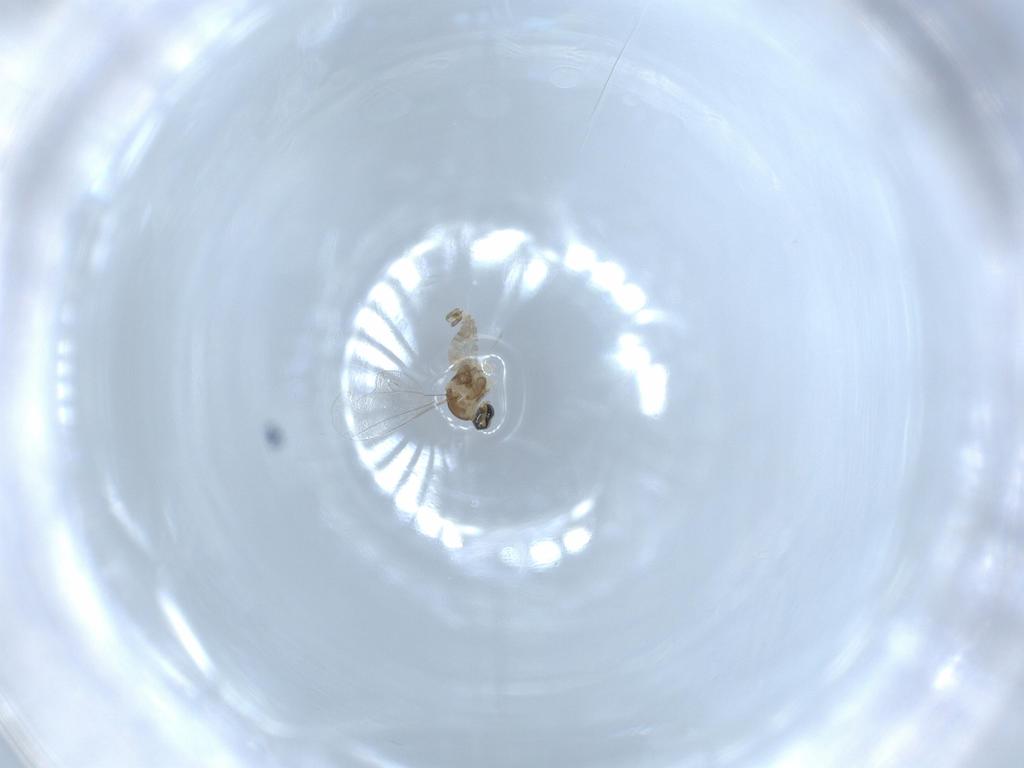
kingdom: Animalia
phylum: Arthropoda
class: Insecta
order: Diptera
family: Cecidomyiidae
